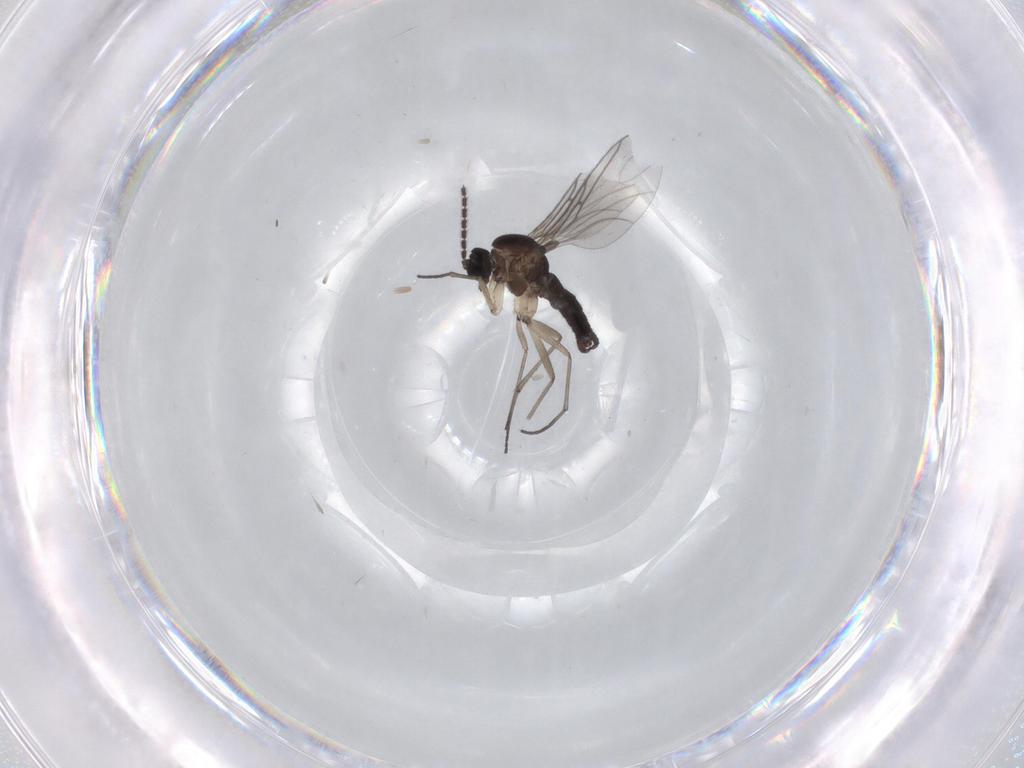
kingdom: Animalia
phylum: Arthropoda
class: Insecta
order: Diptera
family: Sciaridae
